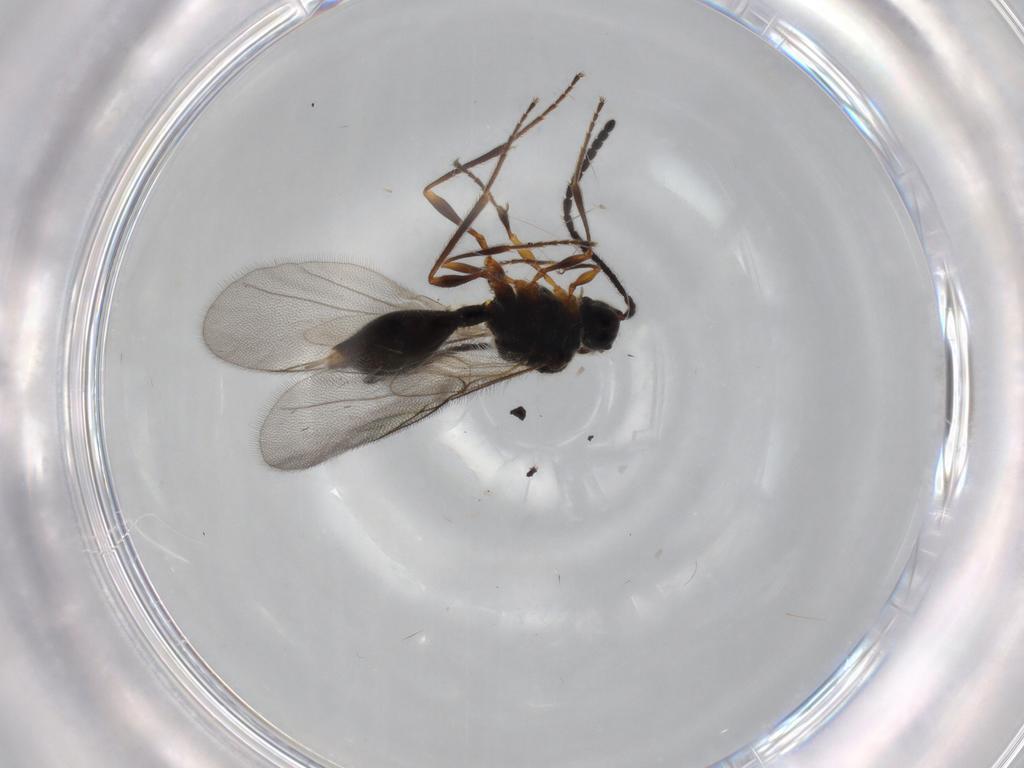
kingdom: Animalia
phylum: Arthropoda
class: Insecta
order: Hymenoptera
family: Diapriidae
